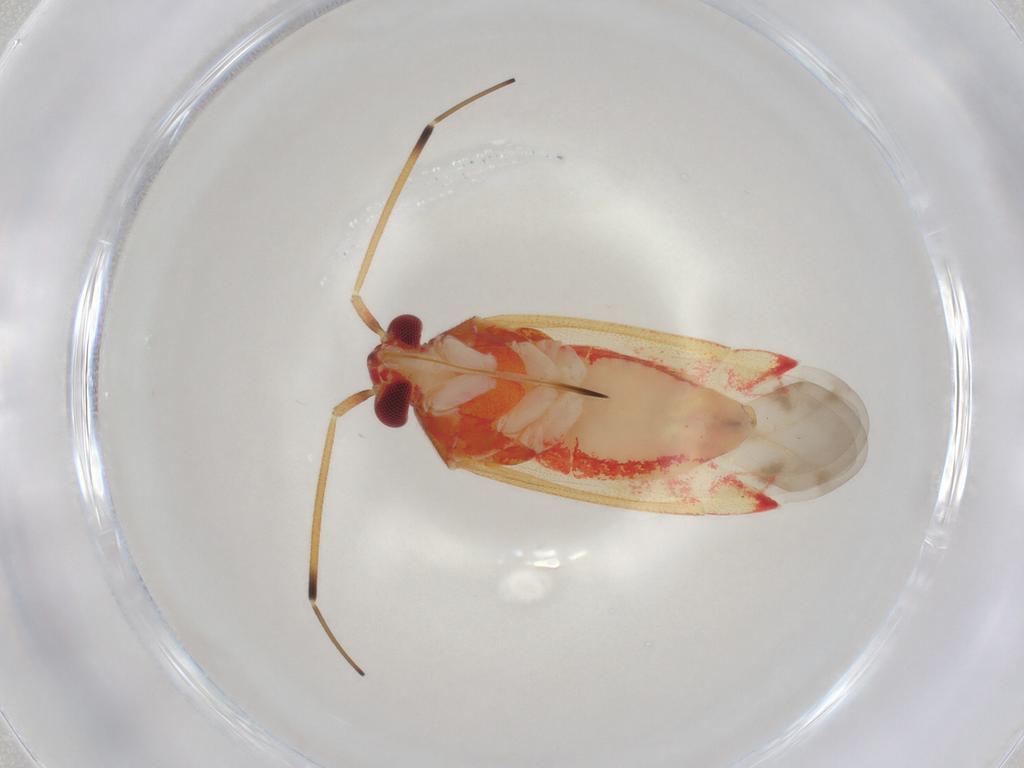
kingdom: Animalia
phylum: Arthropoda
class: Insecta
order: Hemiptera
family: Miridae
